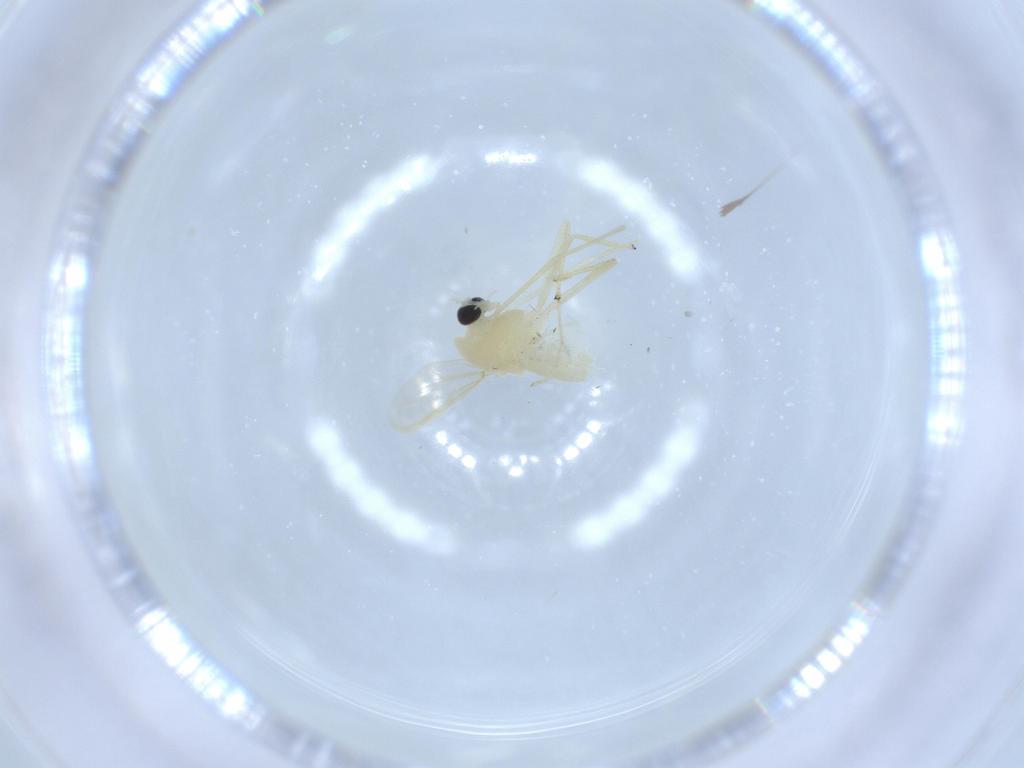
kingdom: Animalia
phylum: Arthropoda
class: Insecta
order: Diptera
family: Chironomidae
